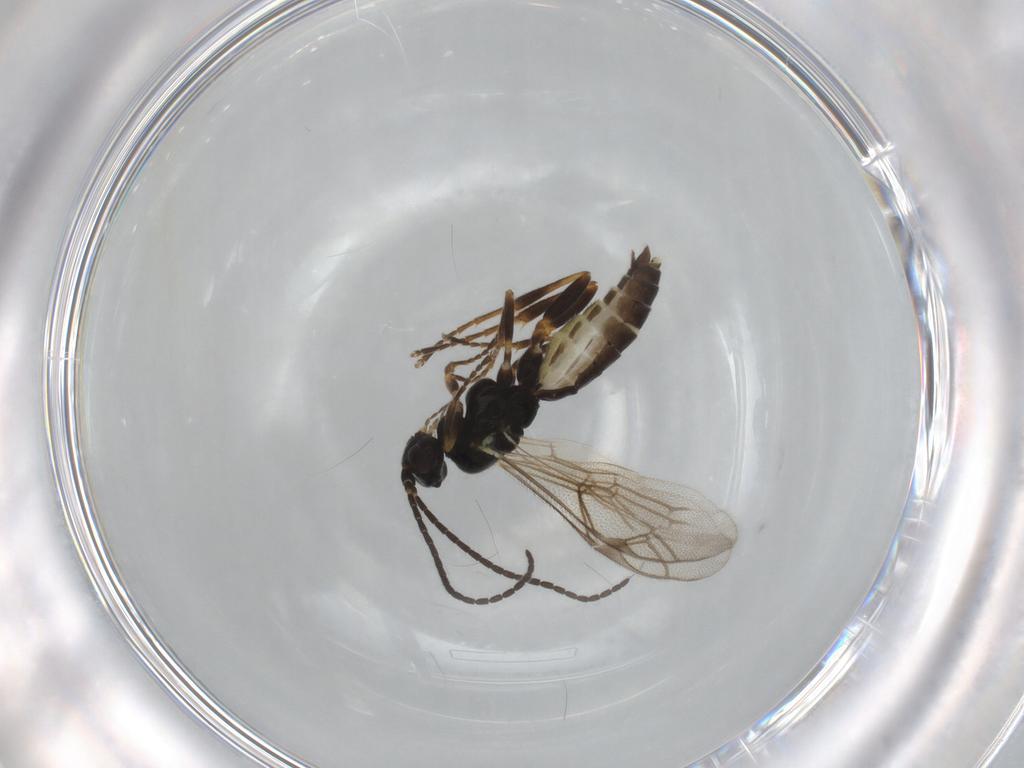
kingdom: Animalia
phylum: Arthropoda
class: Insecta
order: Hymenoptera
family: Ichneumonidae
